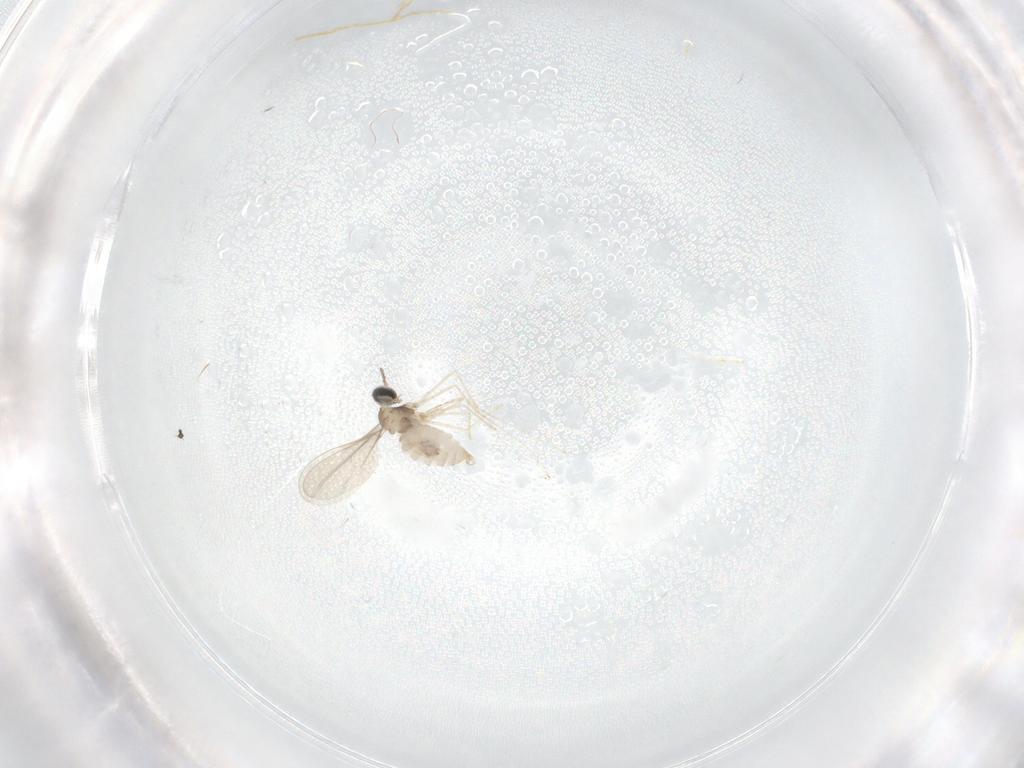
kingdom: Animalia
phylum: Arthropoda
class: Insecta
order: Diptera
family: Cecidomyiidae
